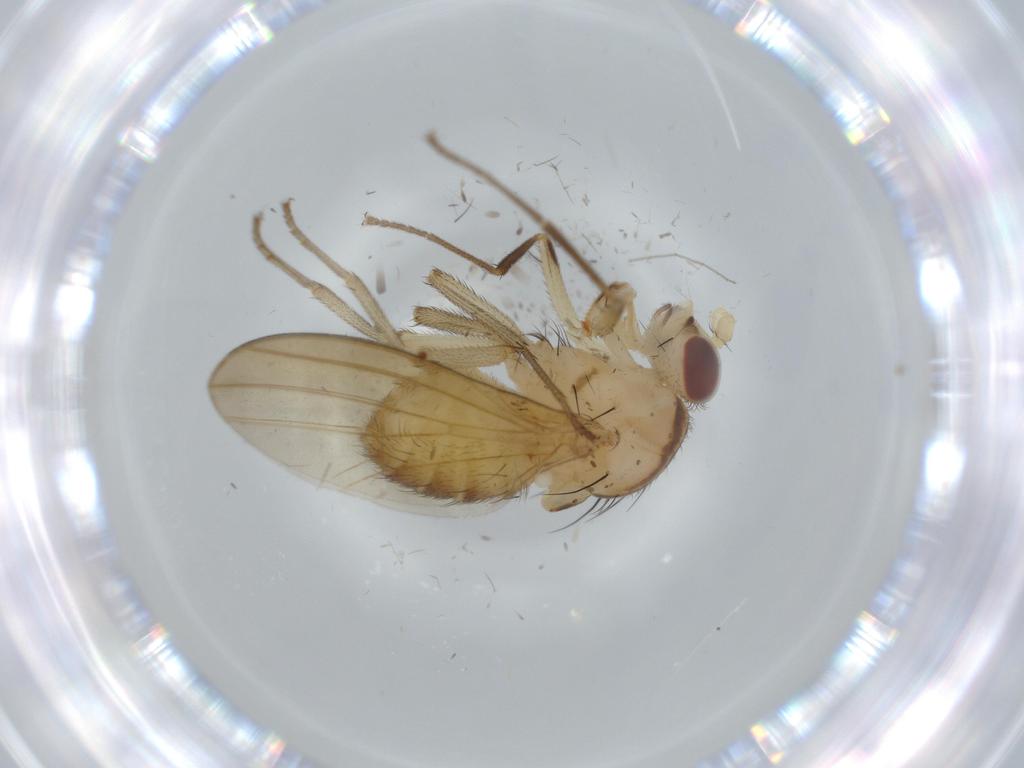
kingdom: Animalia
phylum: Arthropoda
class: Insecta
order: Diptera
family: Lauxaniidae
